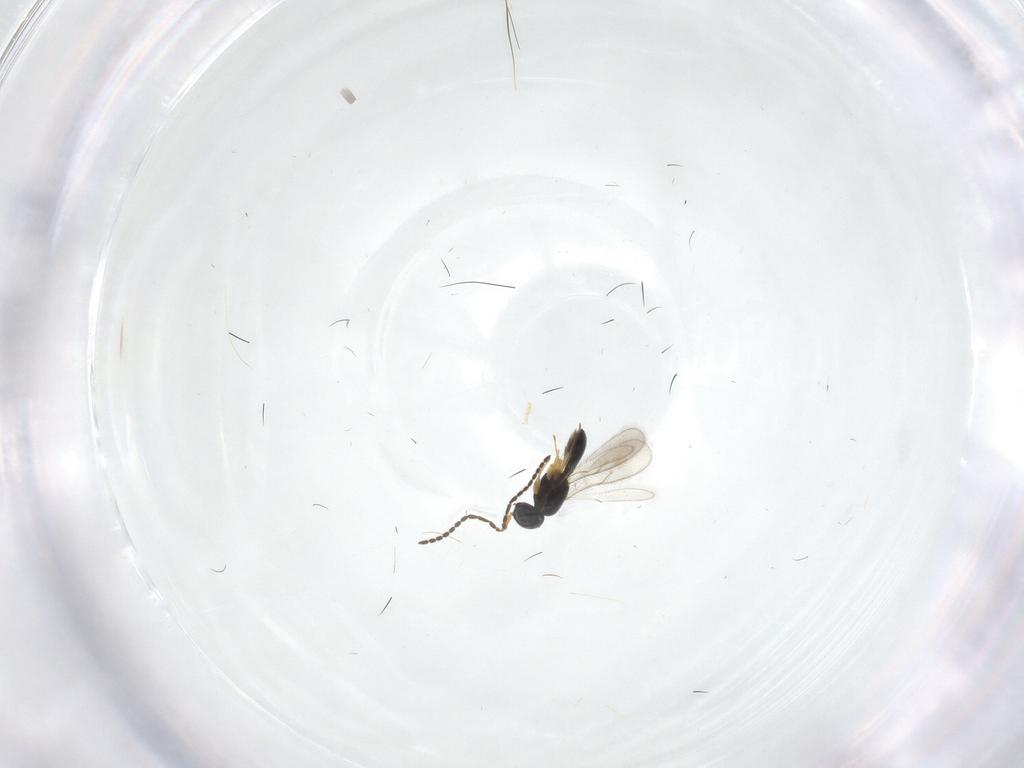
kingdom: Animalia
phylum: Arthropoda
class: Insecta
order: Hymenoptera
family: Scelionidae
